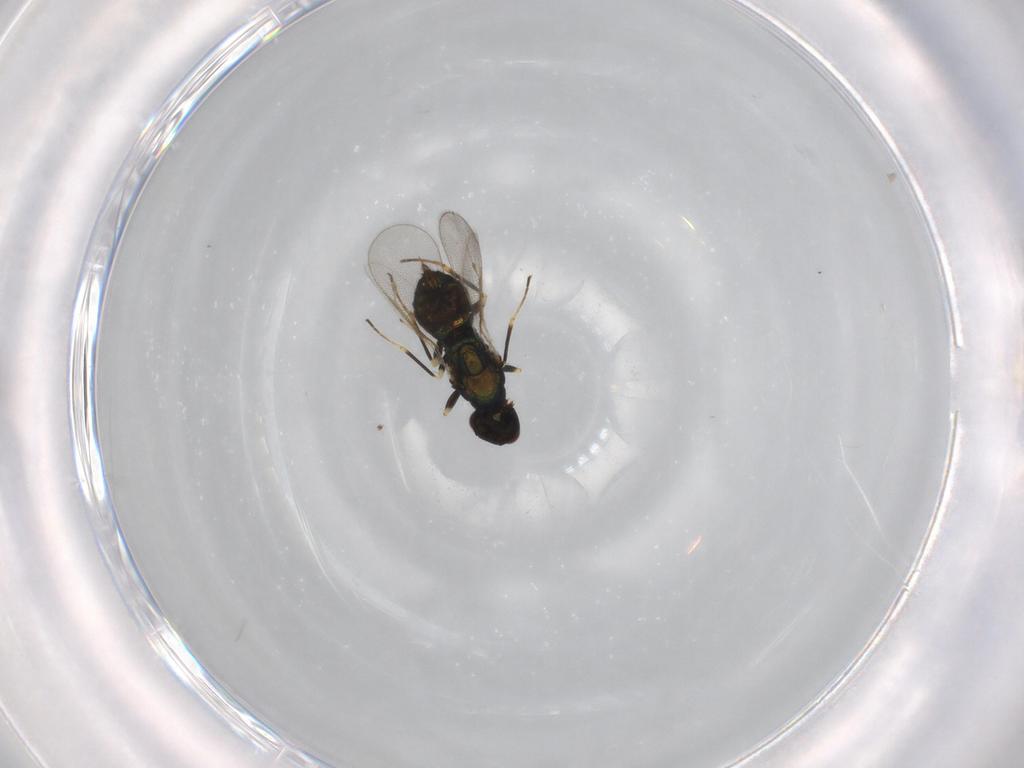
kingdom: Animalia
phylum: Arthropoda
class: Insecta
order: Hymenoptera
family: Eulophidae
